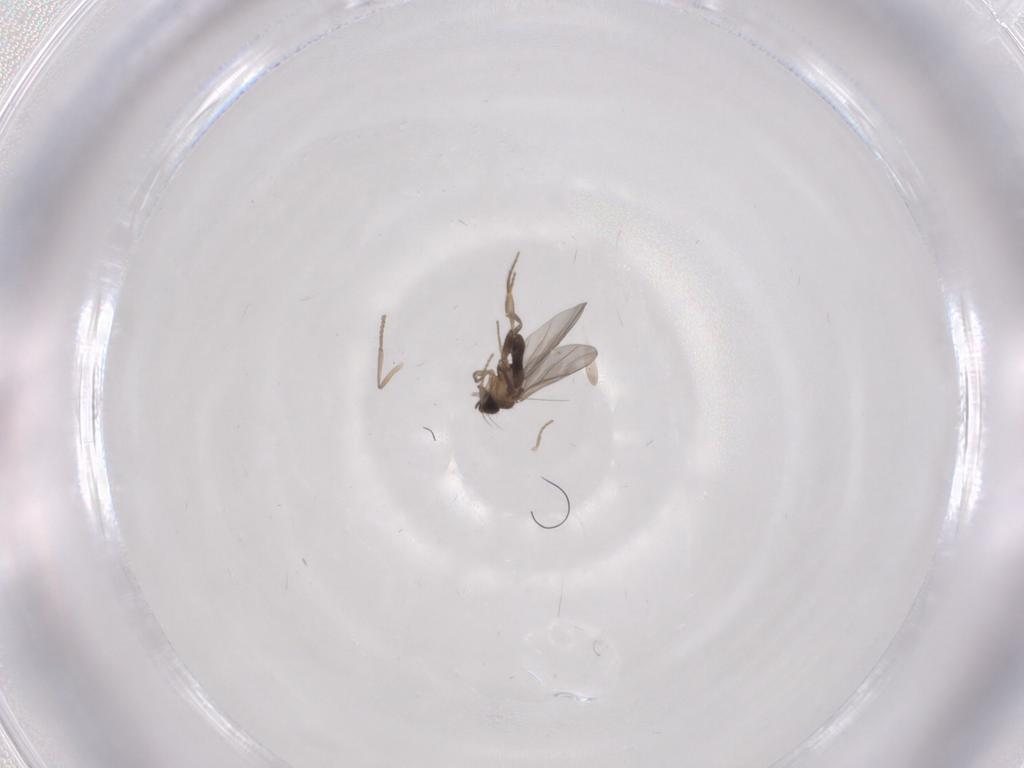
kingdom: Animalia
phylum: Arthropoda
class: Insecta
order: Diptera
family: Psychodidae
